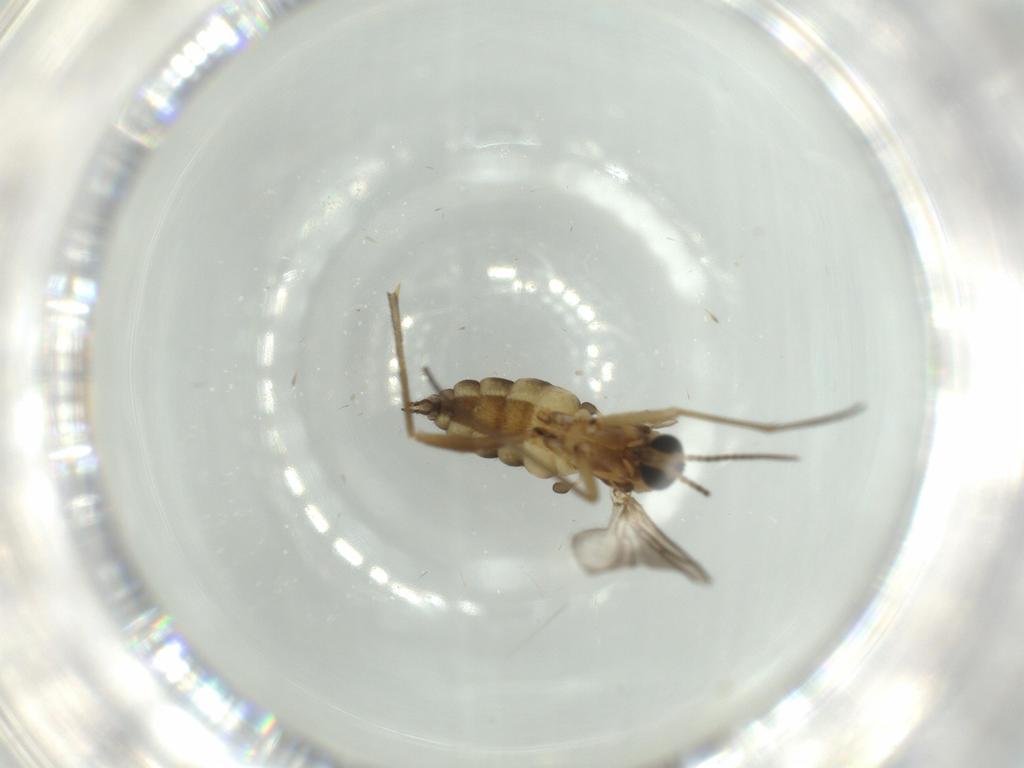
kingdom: Animalia
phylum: Arthropoda
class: Insecta
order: Diptera
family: Sciaridae
